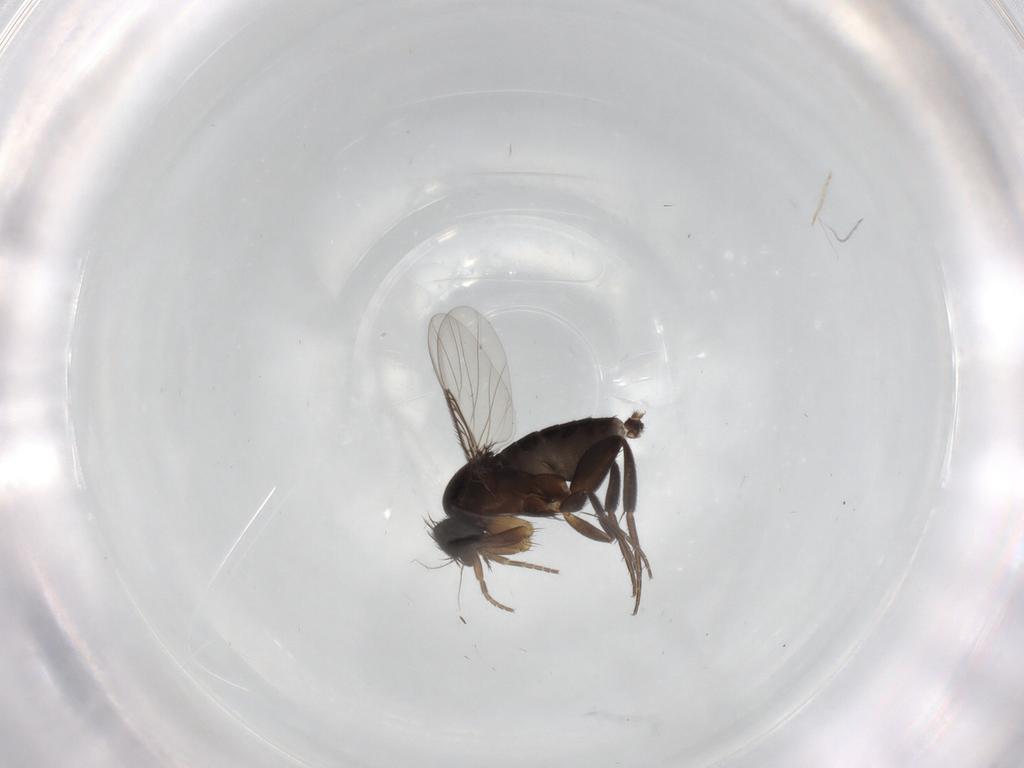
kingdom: Animalia
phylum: Arthropoda
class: Insecta
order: Diptera
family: Phoridae
